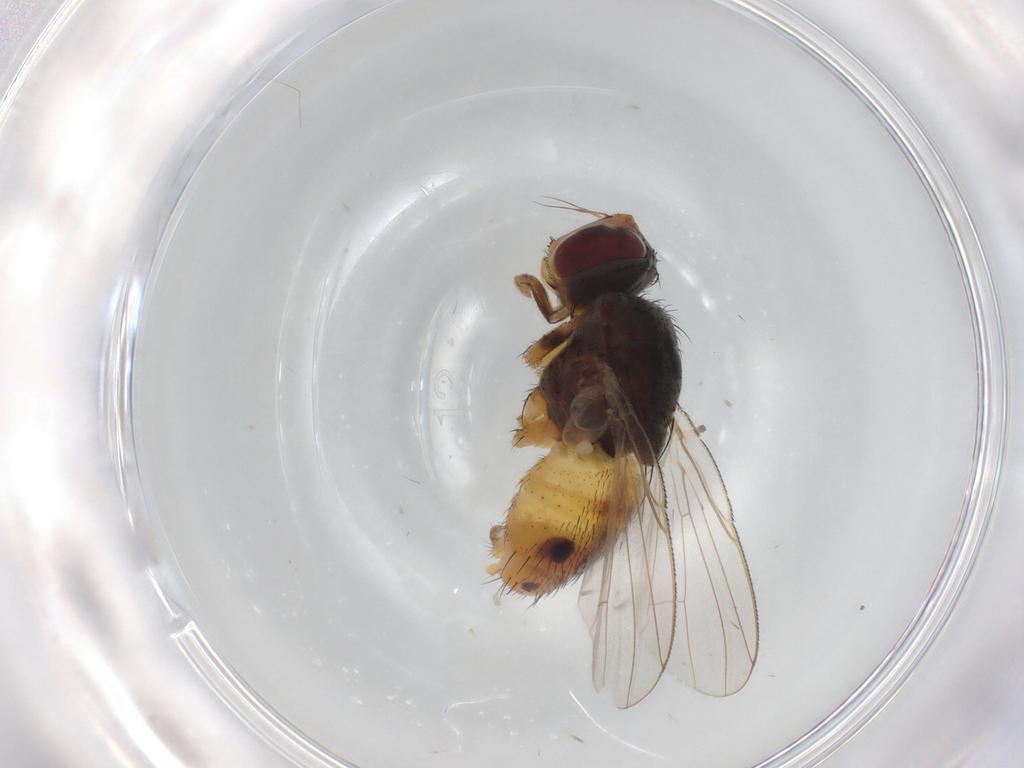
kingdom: Animalia
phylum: Arthropoda
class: Insecta
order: Diptera
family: Muscidae
